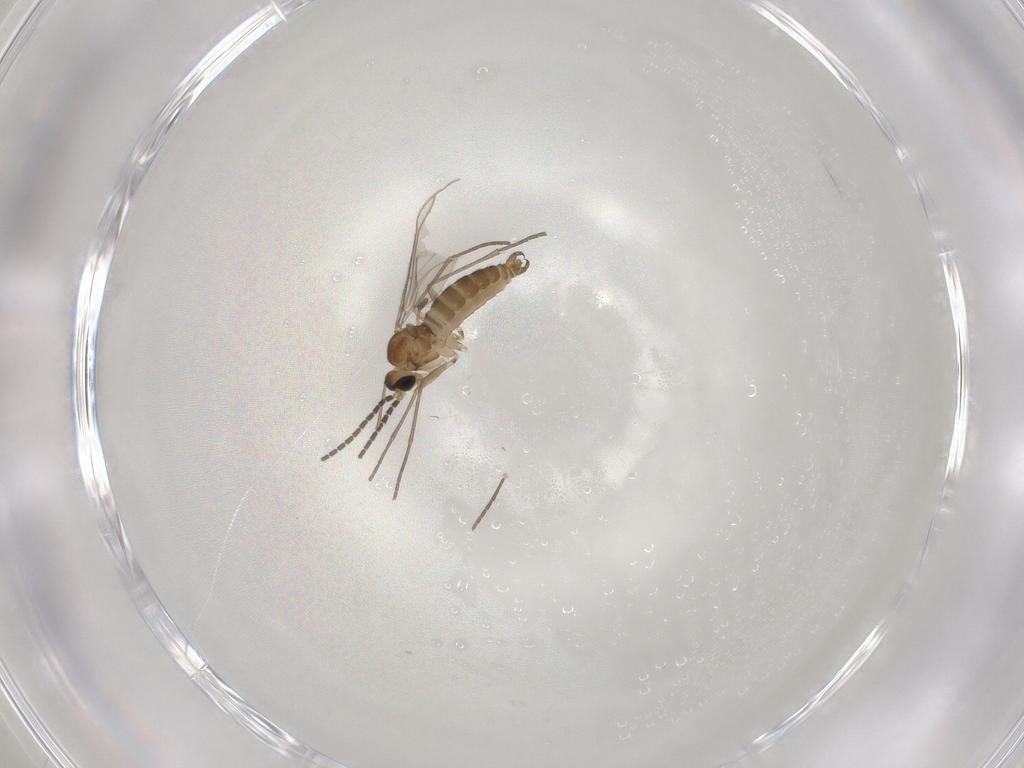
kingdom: Animalia
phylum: Arthropoda
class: Insecta
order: Diptera
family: Sciaridae
